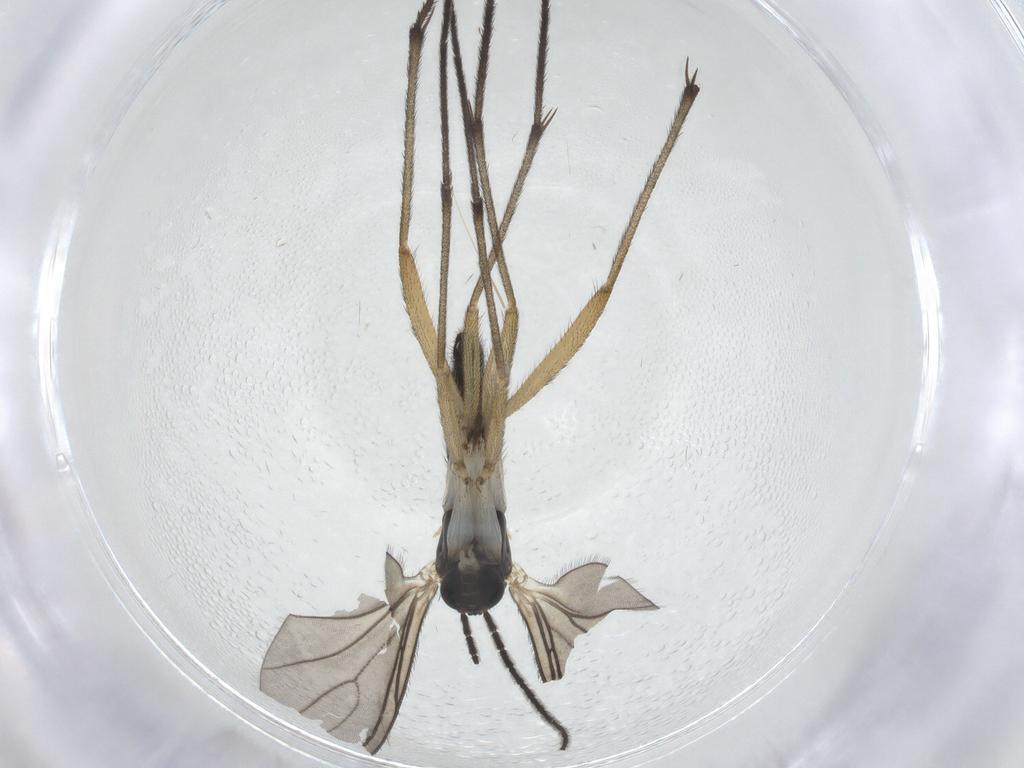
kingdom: Animalia
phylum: Arthropoda
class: Insecta
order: Diptera
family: Sciaridae
